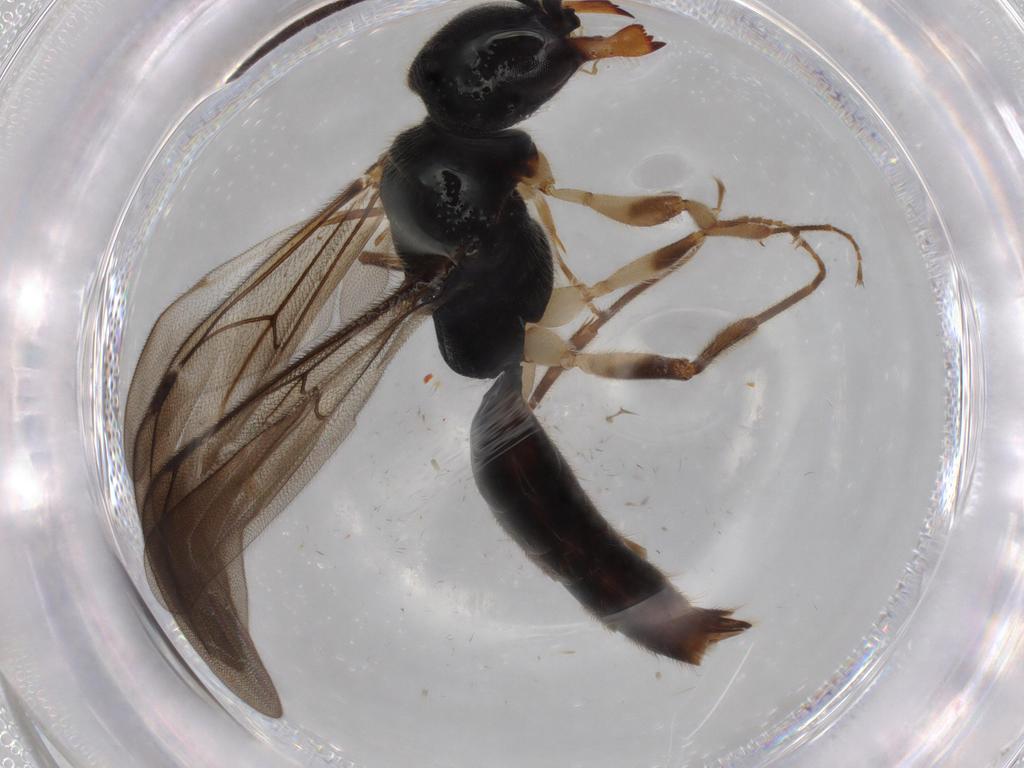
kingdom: Animalia
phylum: Arthropoda
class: Insecta
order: Hymenoptera
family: Bethylidae
